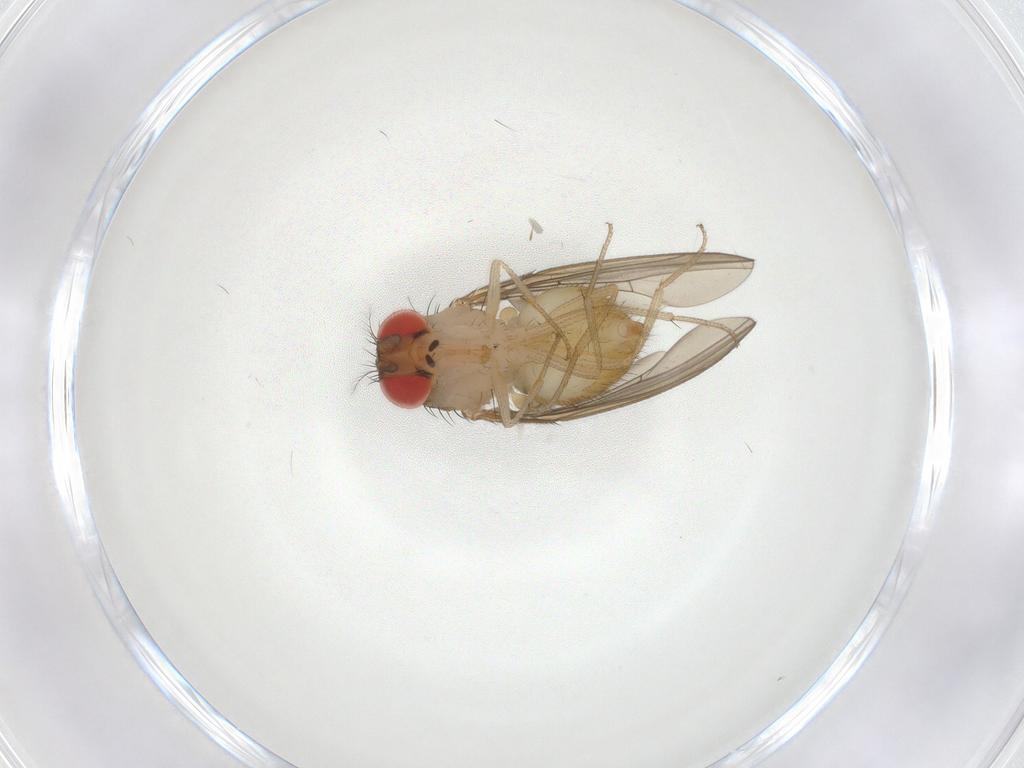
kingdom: Animalia
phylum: Arthropoda
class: Insecta
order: Diptera
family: Drosophilidae
